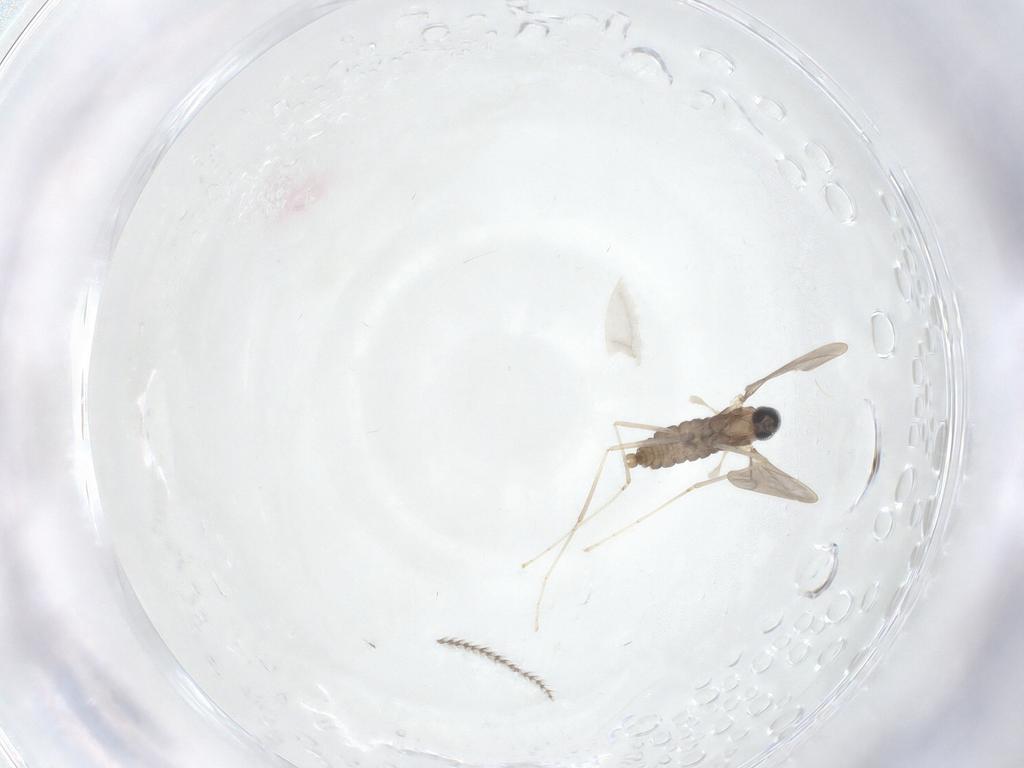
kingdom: Animalia
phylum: Arthropoda
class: Insecta
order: Diptera
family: Cecidomyiidae
